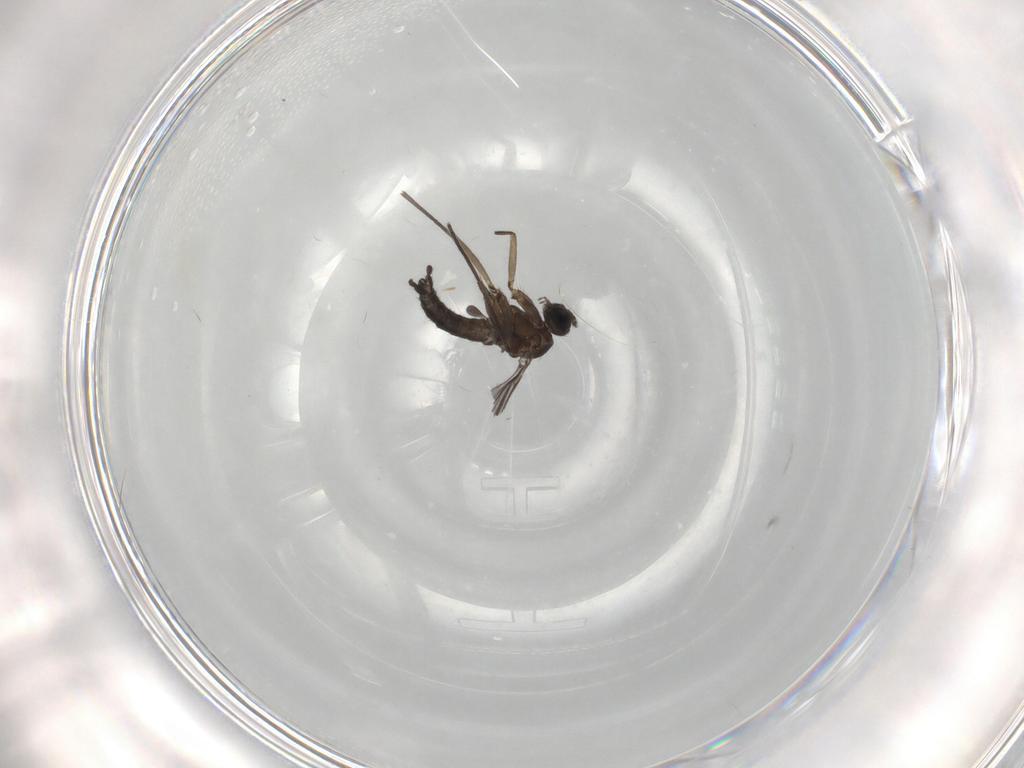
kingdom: Animalia
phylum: Arthropoda
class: Insecta
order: Diptera
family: Sciaridae
